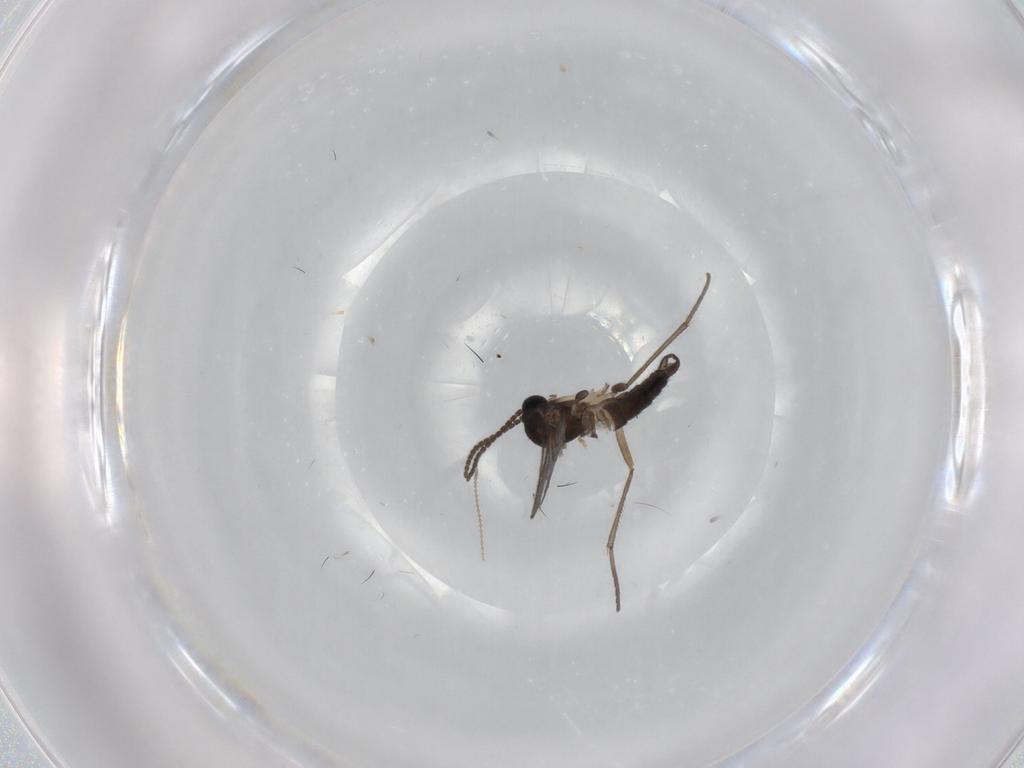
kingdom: Animalia
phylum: Arthropoda
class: Insecta
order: Diptera
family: Sciaridae
